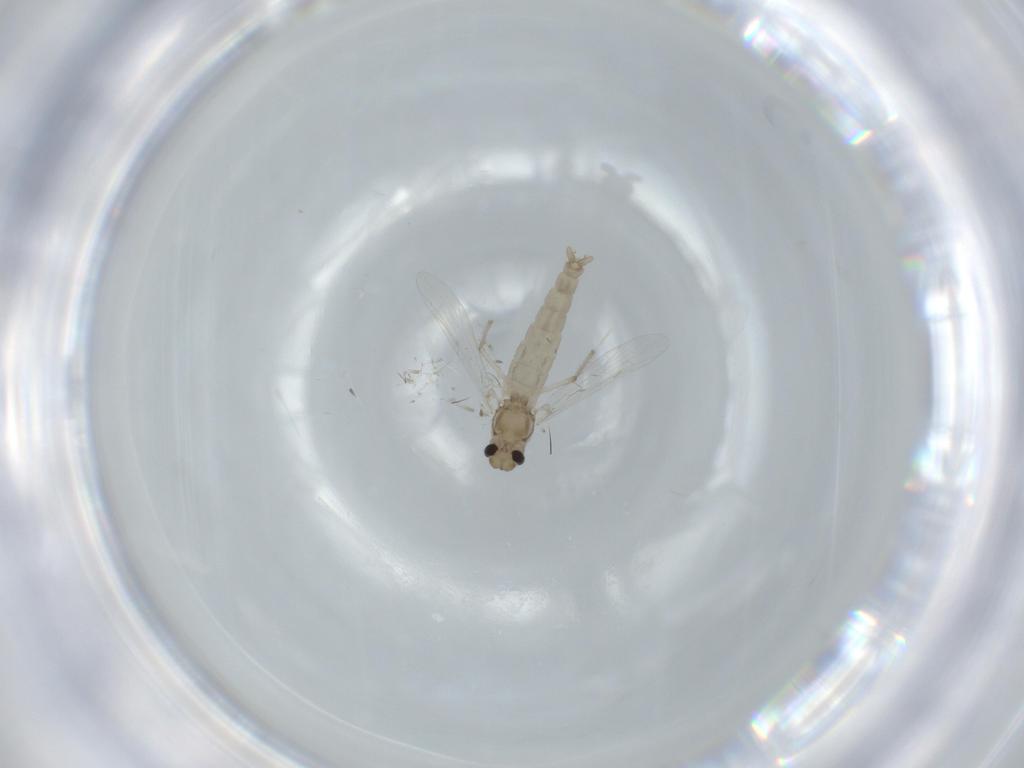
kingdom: Animalia
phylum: Arthropoda
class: Insecta
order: Diptera
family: Chironomidae
